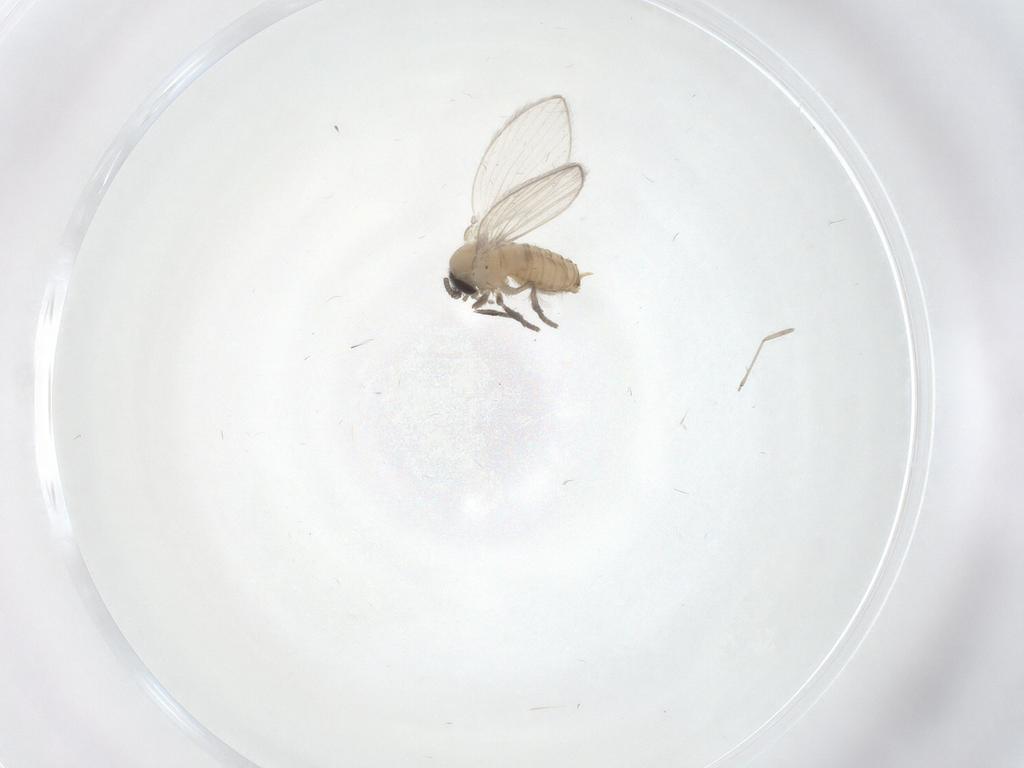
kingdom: Animalia
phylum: Arthropoda
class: Insecta
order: Diptera
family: Psychodidae
